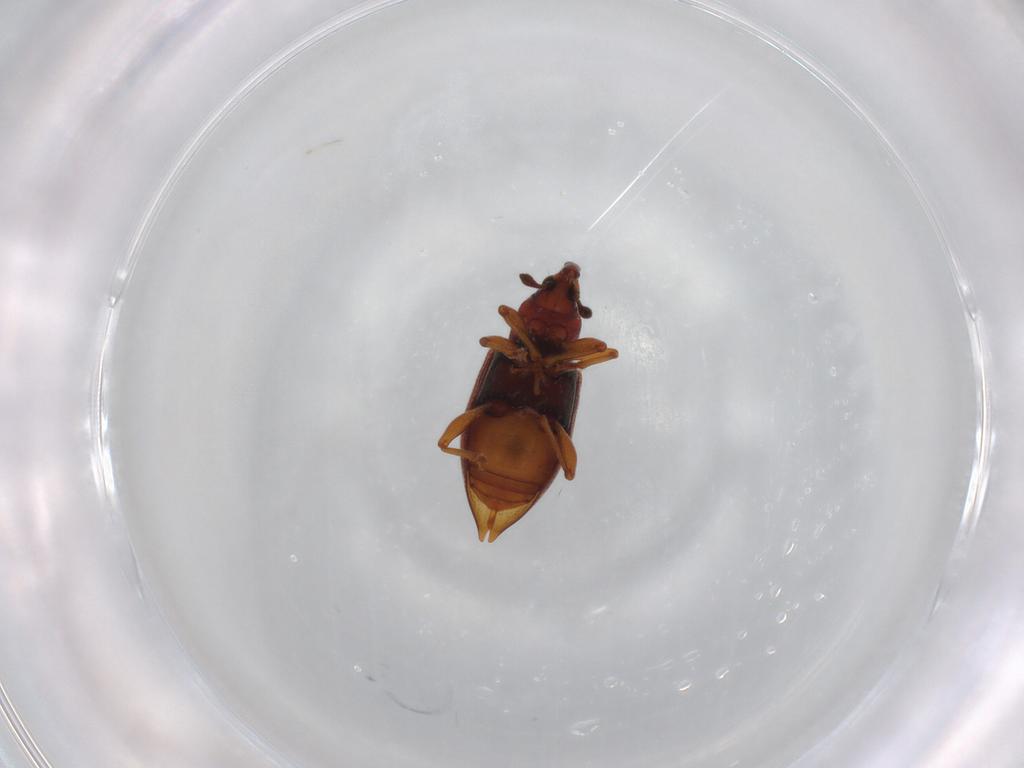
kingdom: Animalia
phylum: Arthropoda
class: Insecta
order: Coleoptera
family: Curculionidae
